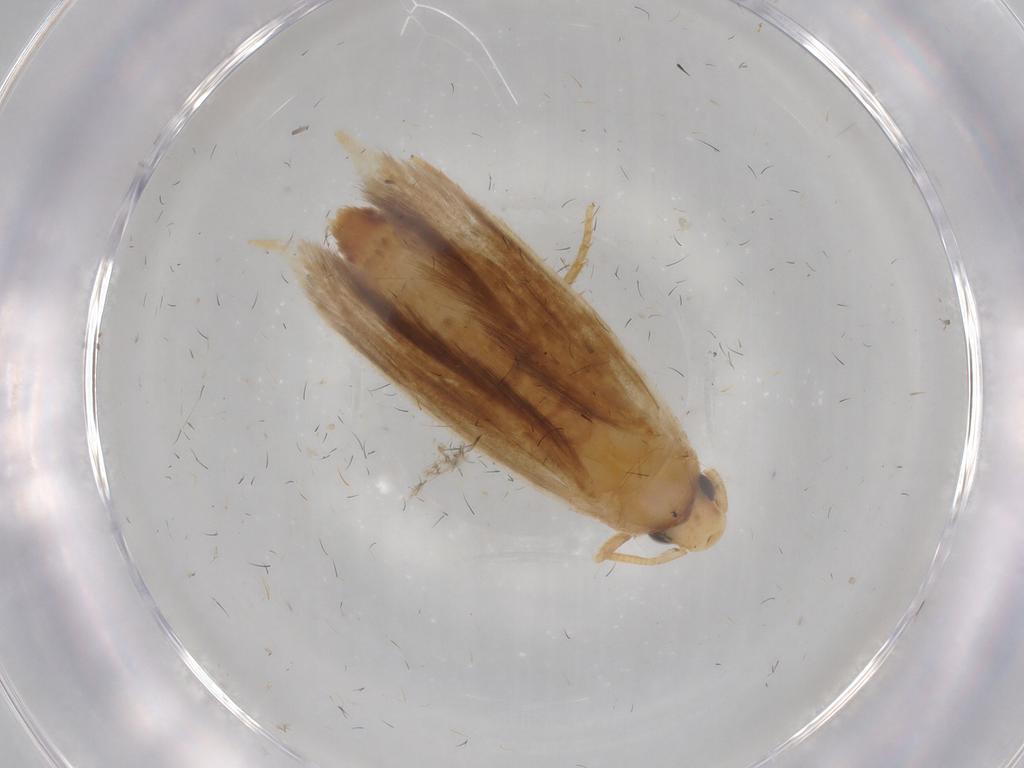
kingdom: Animalia
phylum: Arthropoda
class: Insecta
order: Lepidoptera
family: Tineidae
